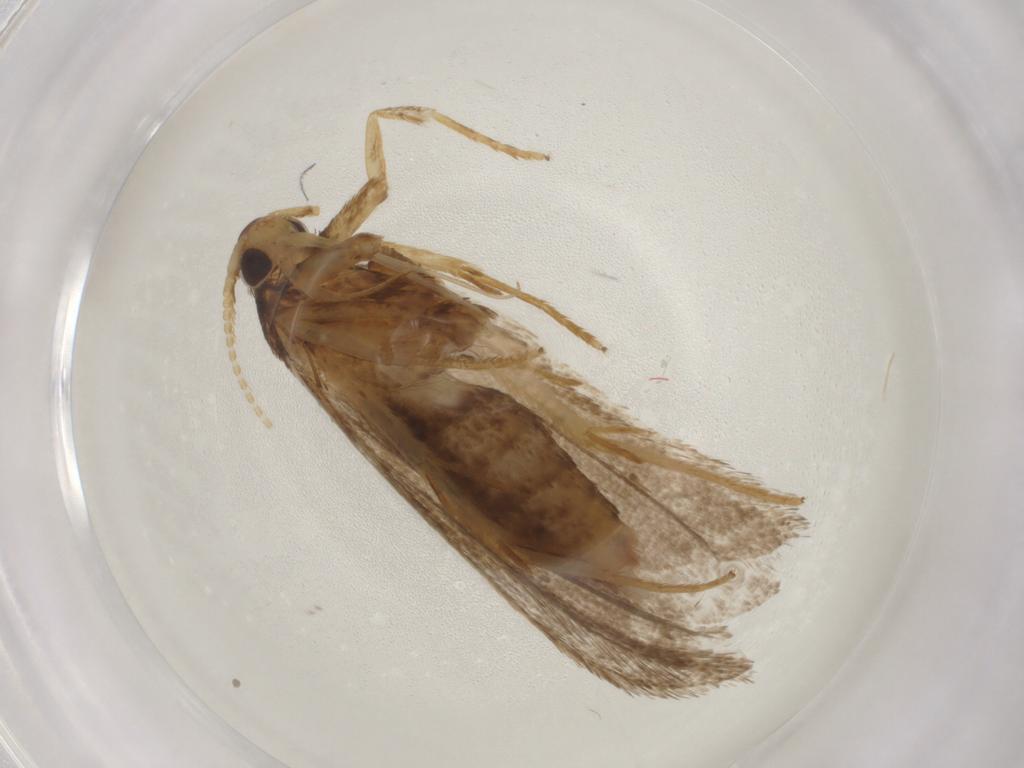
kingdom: Animalia
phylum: Arthropoda
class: Insecta
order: Lepidoptera
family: Lecithoceridae
